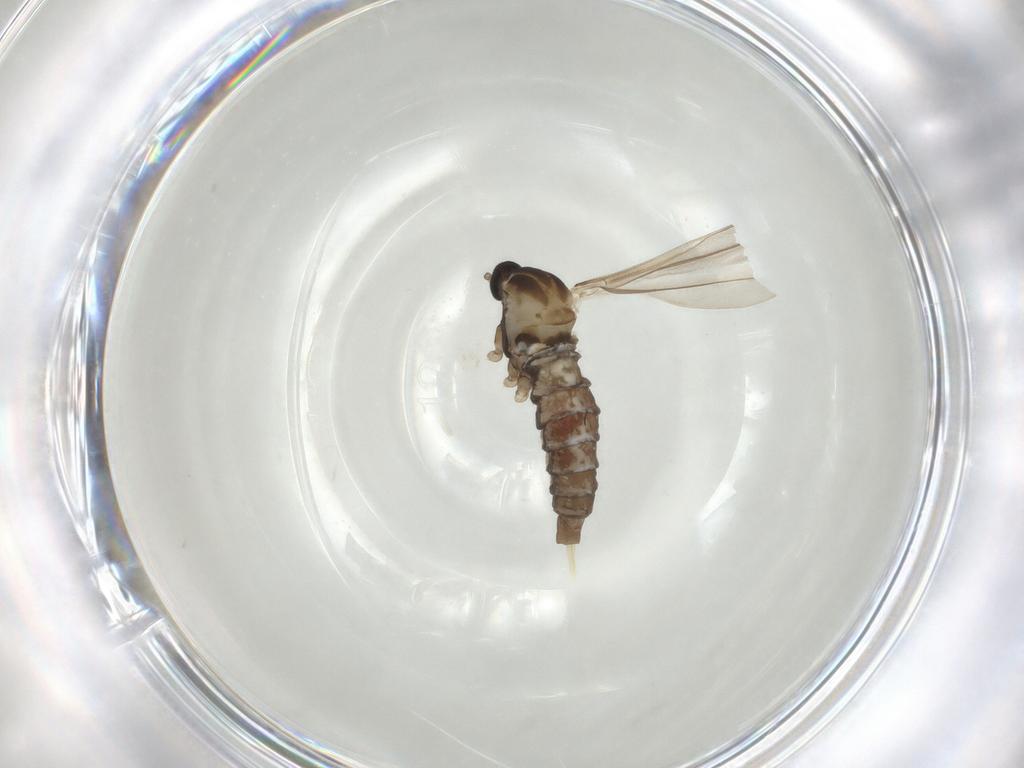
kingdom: Animalia
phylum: Arthropoda
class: Insecta
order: Diptera
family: Cecidomyiidae
